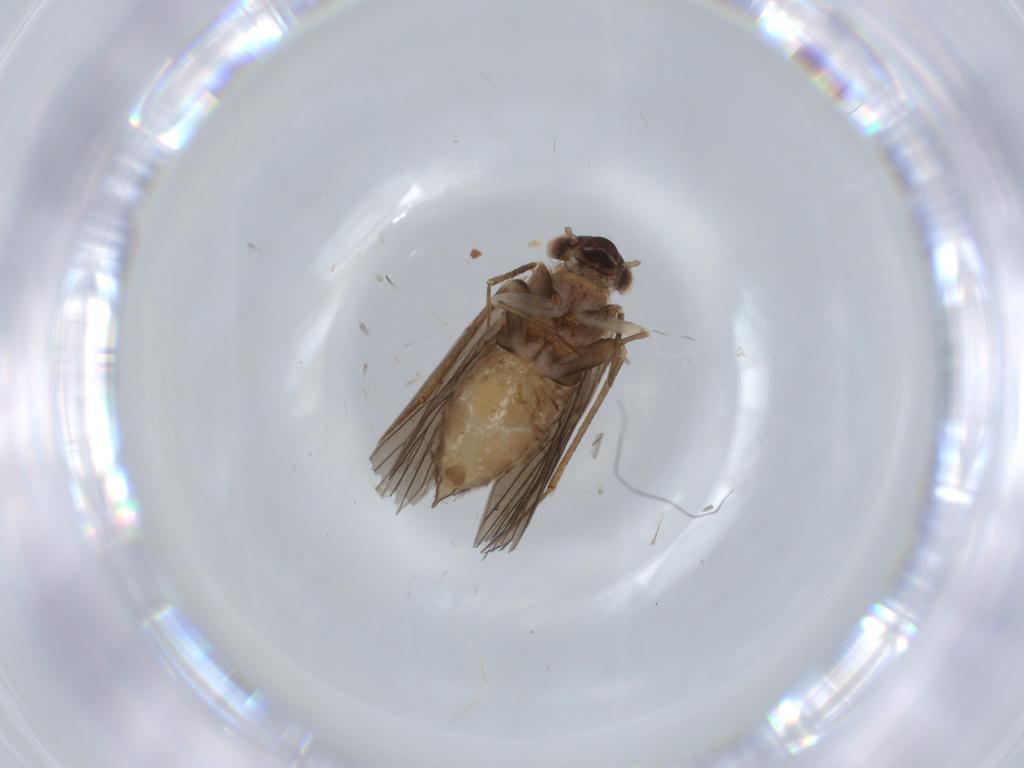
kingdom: Animalia
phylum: Arthropoda
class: Insecta
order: Psocodea
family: Lepidopsocidae
